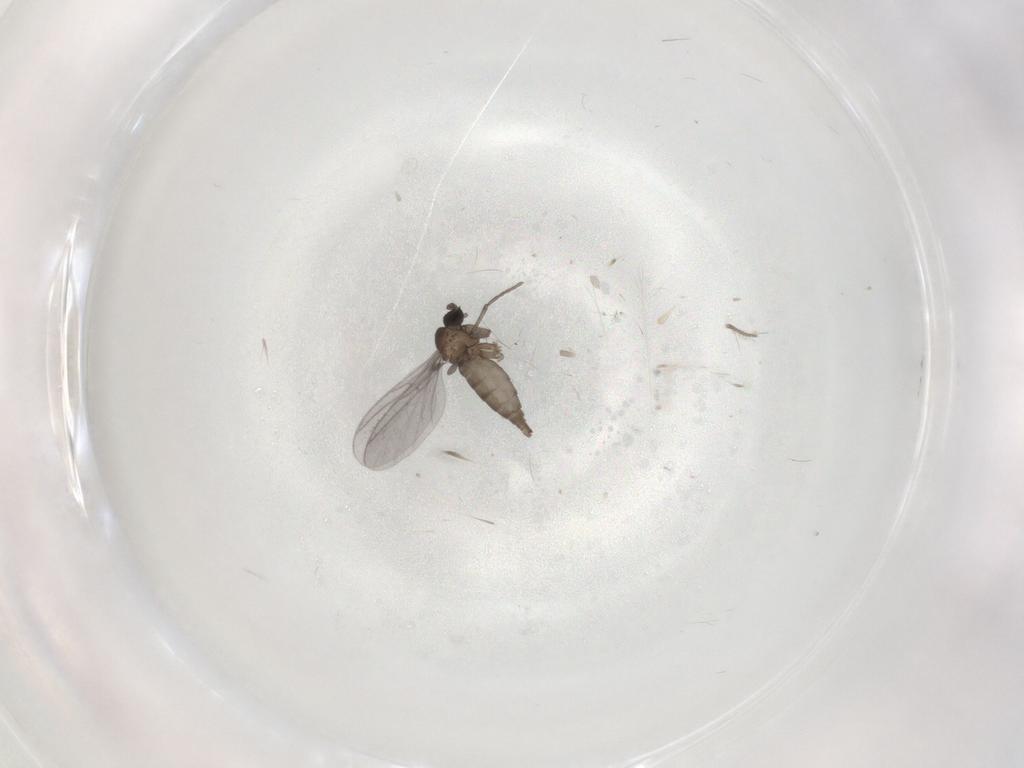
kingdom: Animalia
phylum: Arthropoda
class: Insecta
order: Diptera
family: Sciaridae
